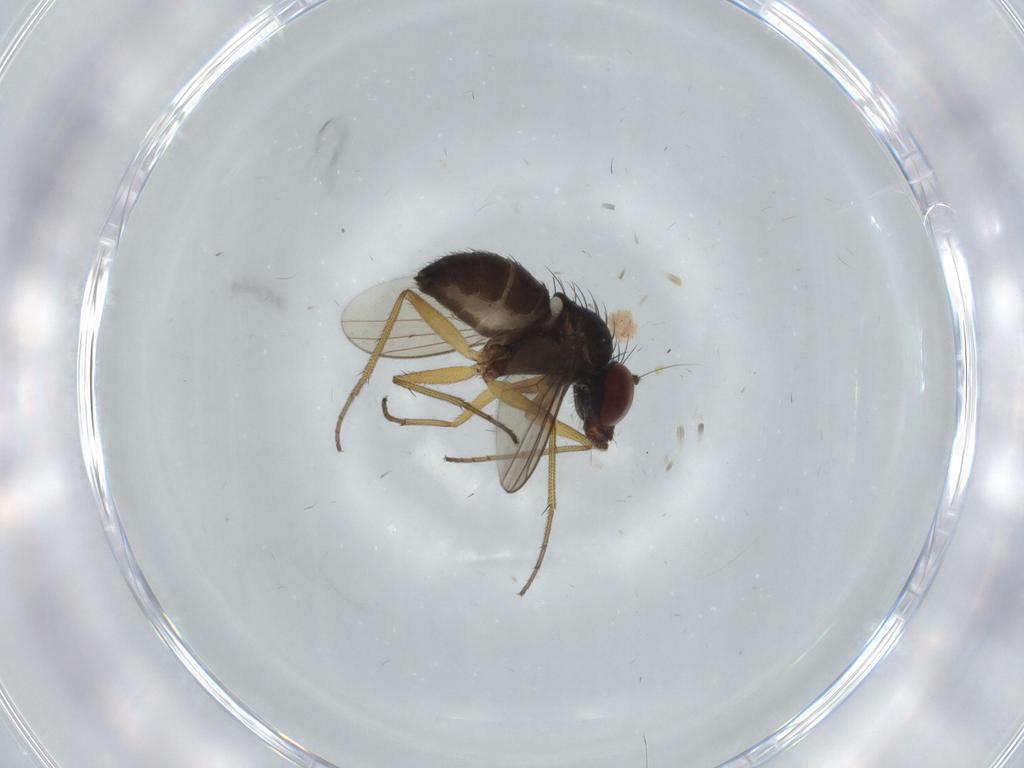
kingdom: Animalia
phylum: Arthropoda
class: Insecta
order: Diptera
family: Dolichopodidae
